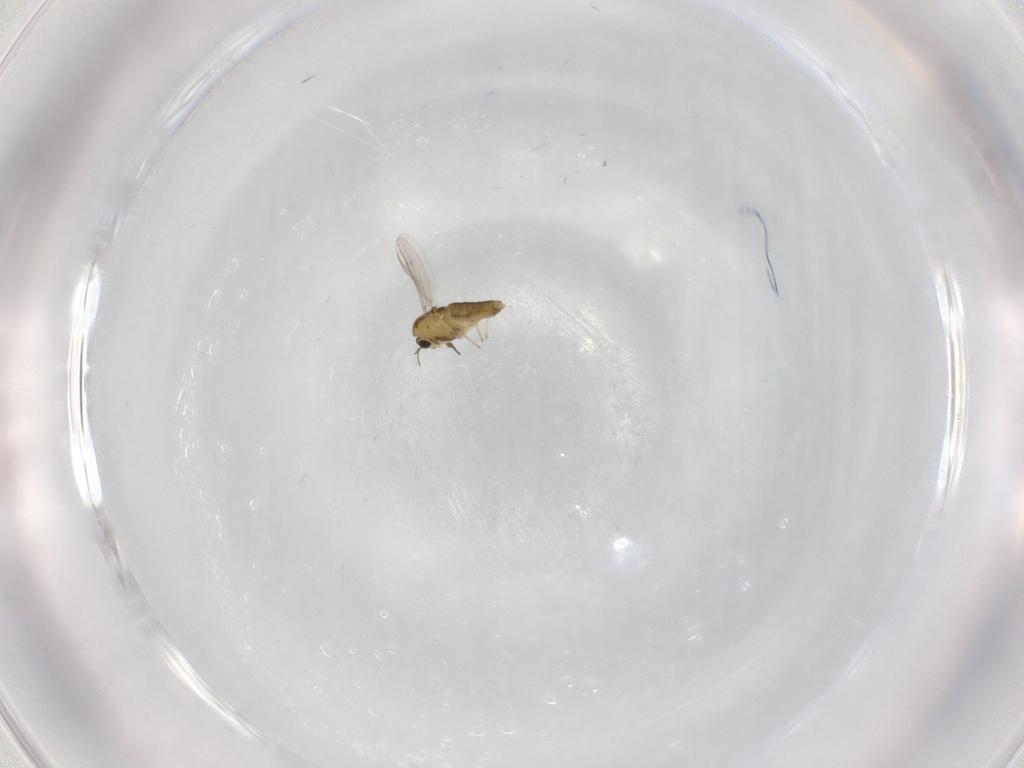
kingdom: Animalia
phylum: Arthropoda
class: Insecta
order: Diptera
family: Chironomidae
